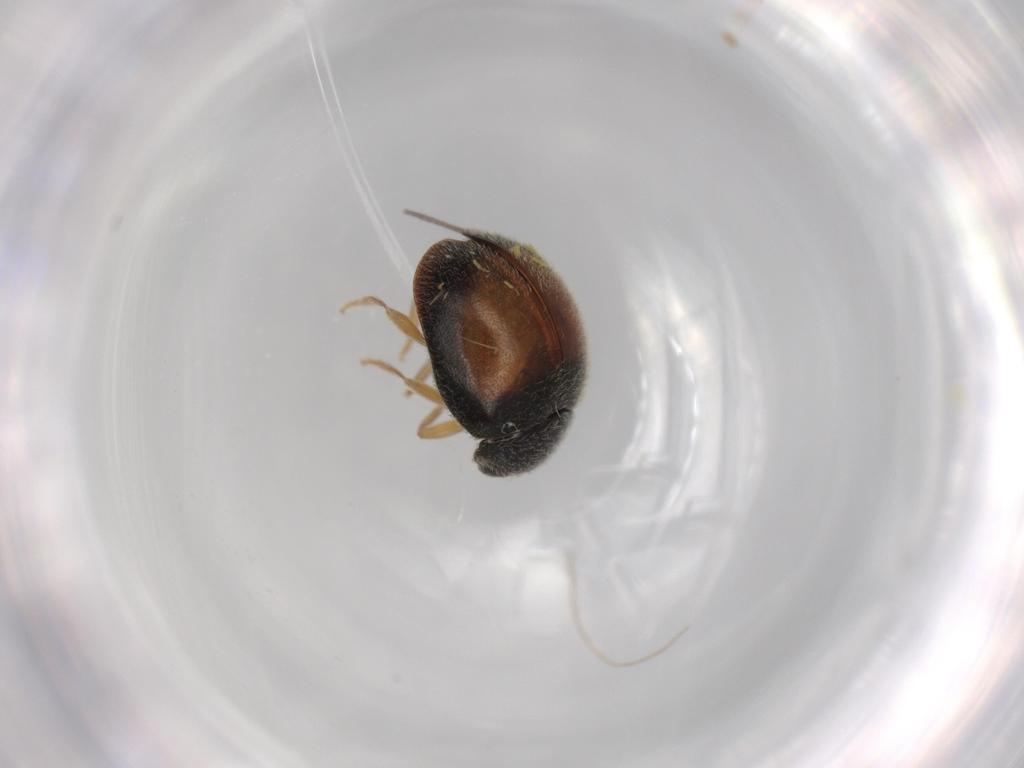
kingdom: Animalia
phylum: Arthropoda
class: Insecta
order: Coleoptera
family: Coccinellidae
